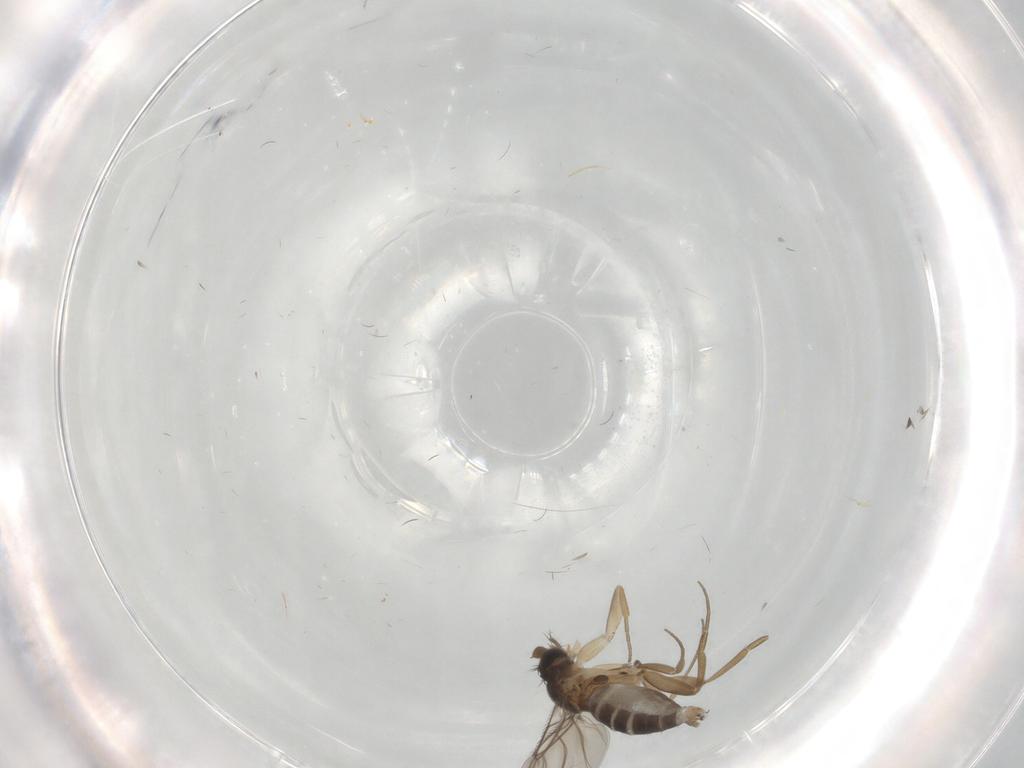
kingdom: Animalia
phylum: Arthropoda
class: Insecta
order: Diptera
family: Phoridae
